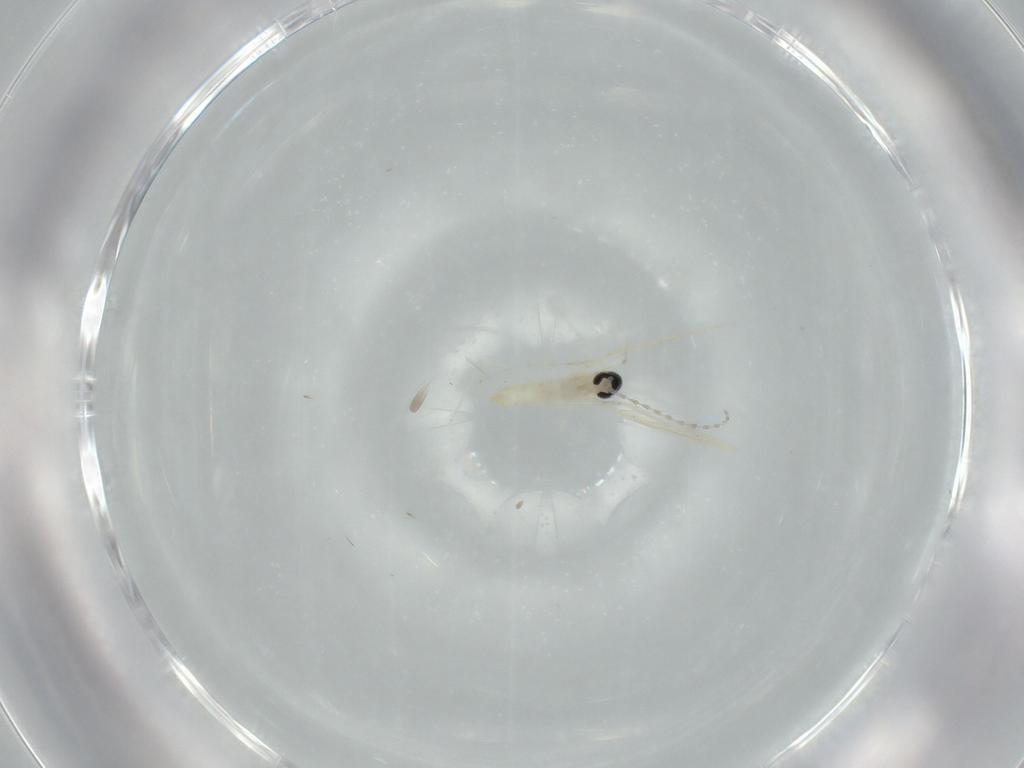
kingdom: Animalia
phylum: Arthropoda
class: Insecta
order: Diptera
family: Cecidomyiidae
